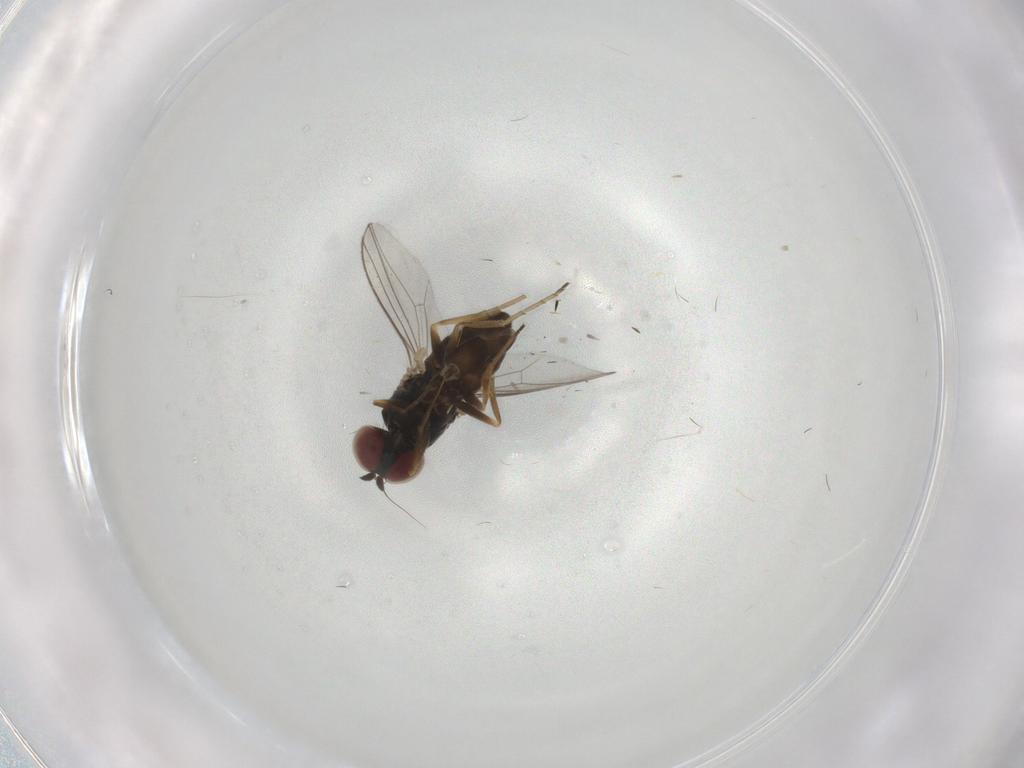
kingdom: Animalia
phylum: Arthropoda
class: Insecta
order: Diptera
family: Dolichopodidae
